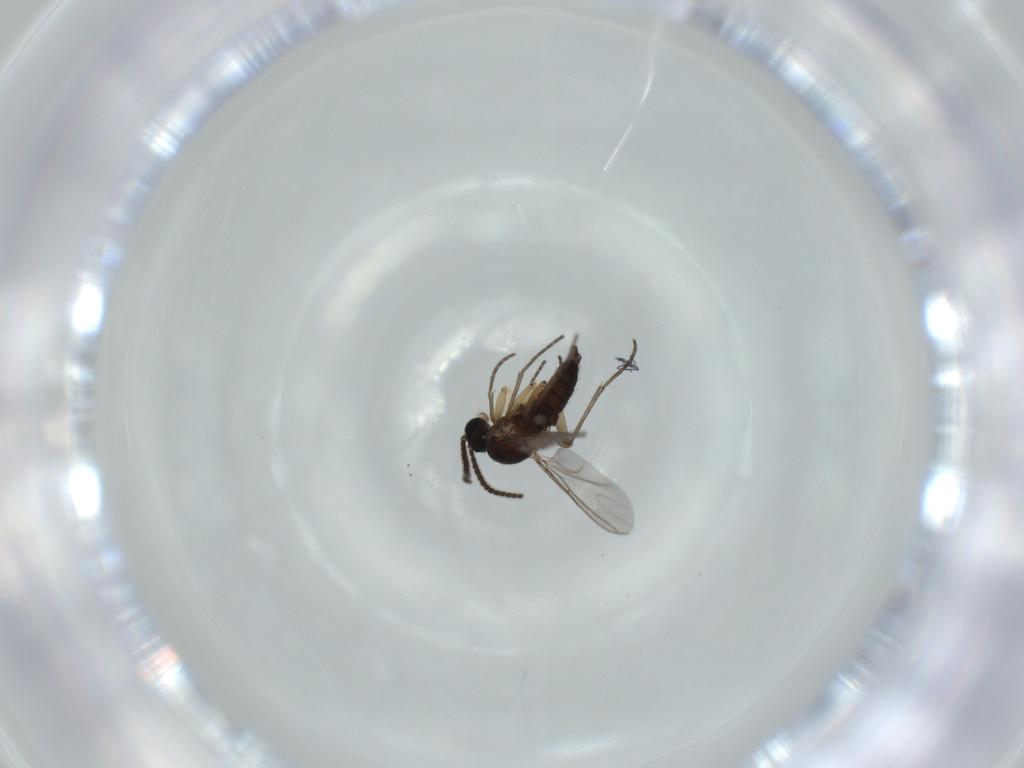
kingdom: Animalia
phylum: Arthropoda
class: Insecta
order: Diptera
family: Sciaridae
